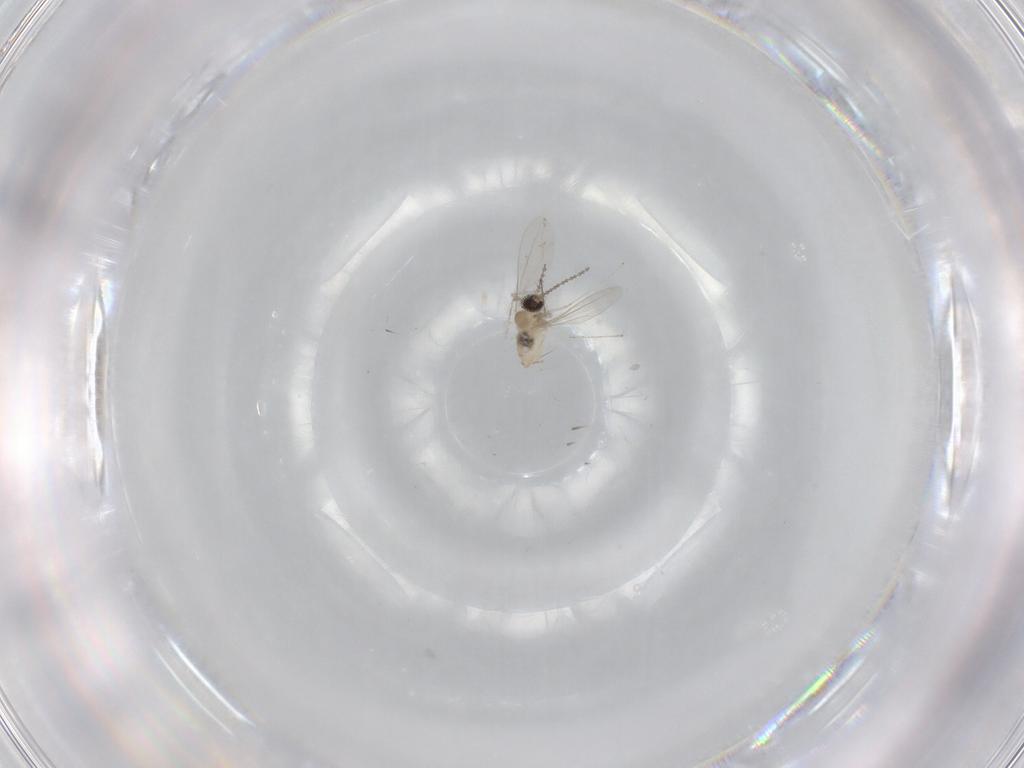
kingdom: Animalia
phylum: Arthropoda
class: Insecta
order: Diptera
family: Cecidomyiidae
